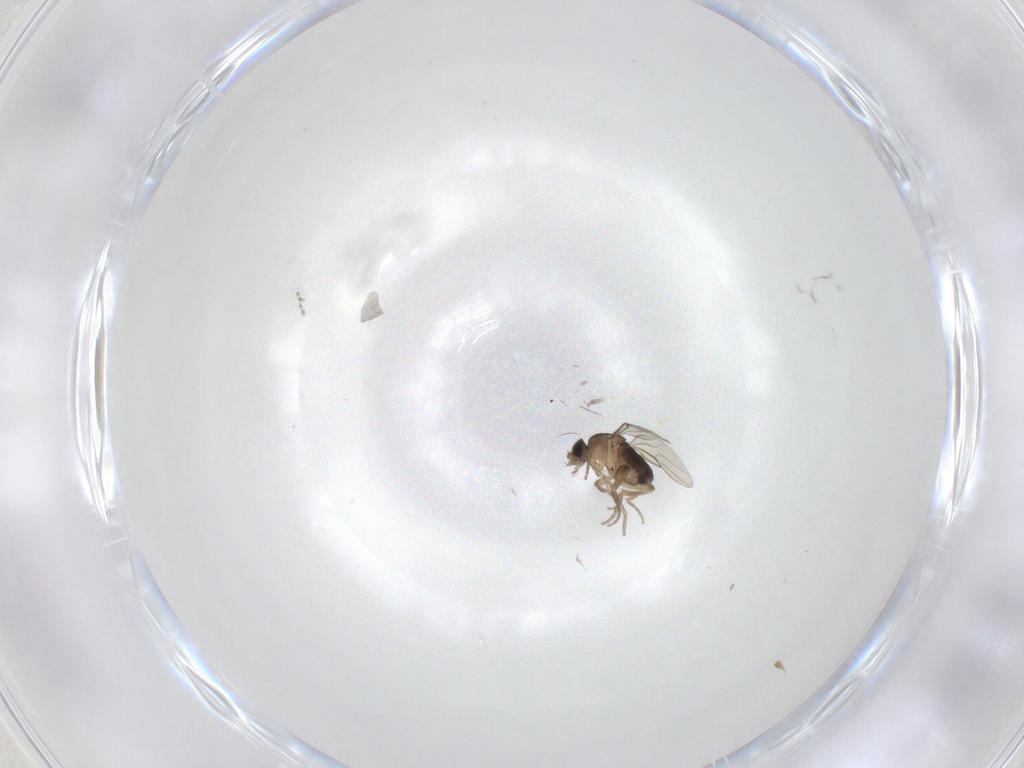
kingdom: Animalia
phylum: Arthropoda
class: Insecta
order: Diptera
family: Phoridae
